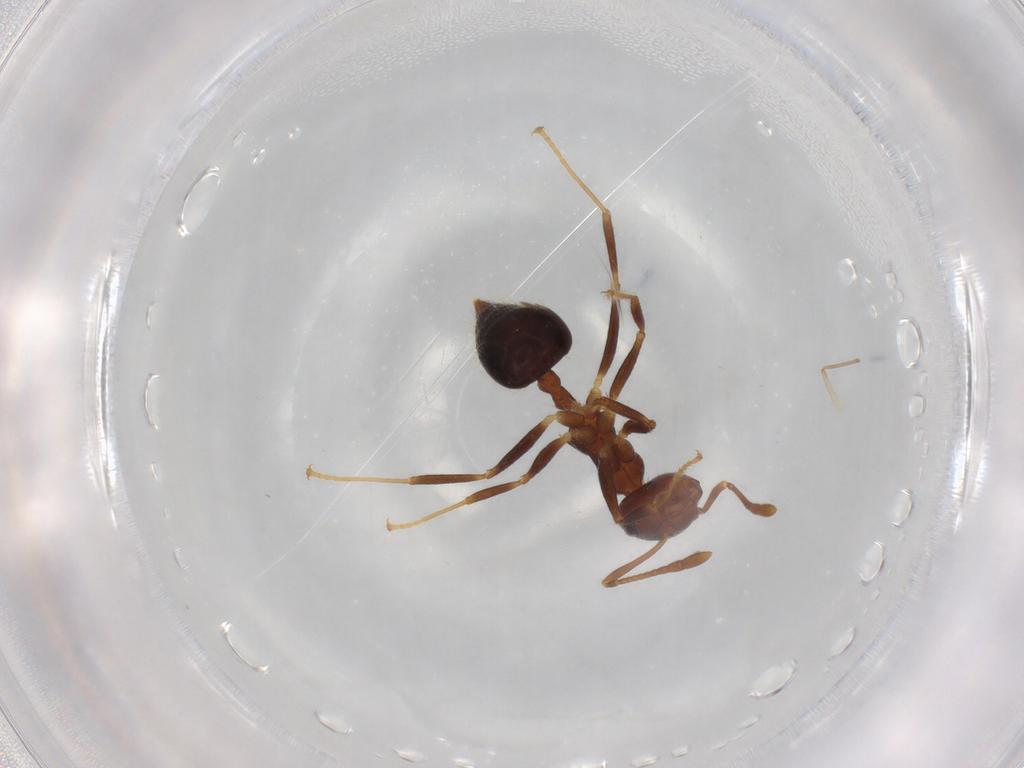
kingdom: Animalia
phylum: Arthropoda
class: Insecta
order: Hymenoptera
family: Formicidae
